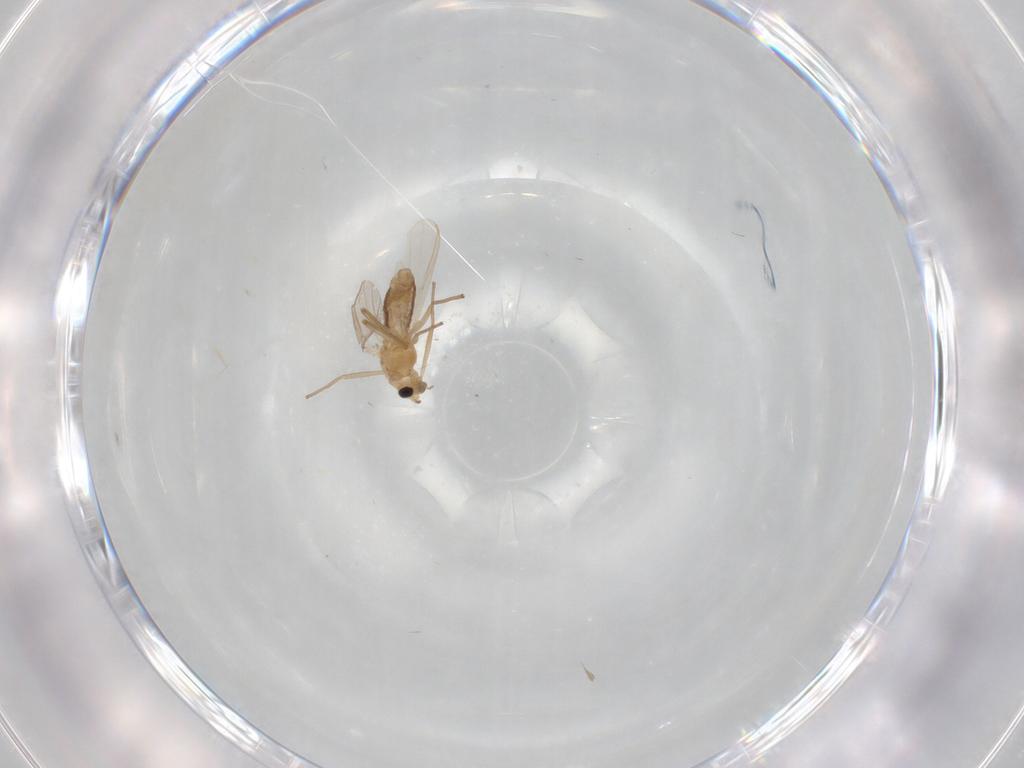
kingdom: Animalia
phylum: Arthropoda
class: Insecta
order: Diptera
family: Chironomidae
